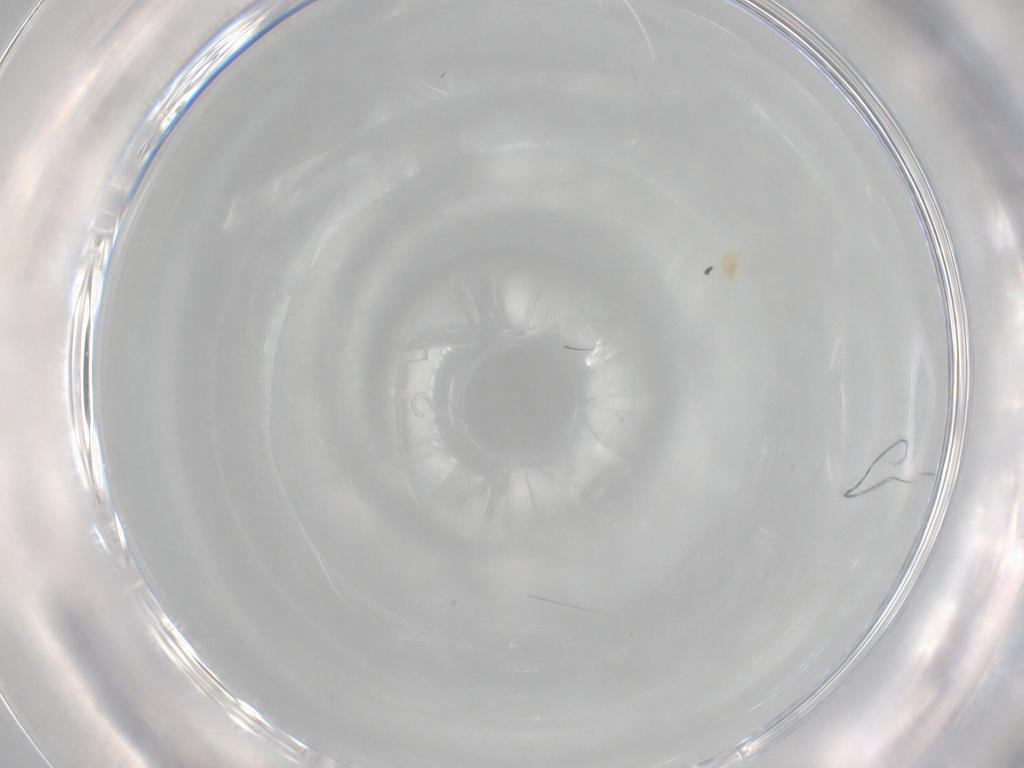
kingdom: Animalia
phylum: Arthropoda
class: Arachnida
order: Trombidiformes
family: Eupodidae
